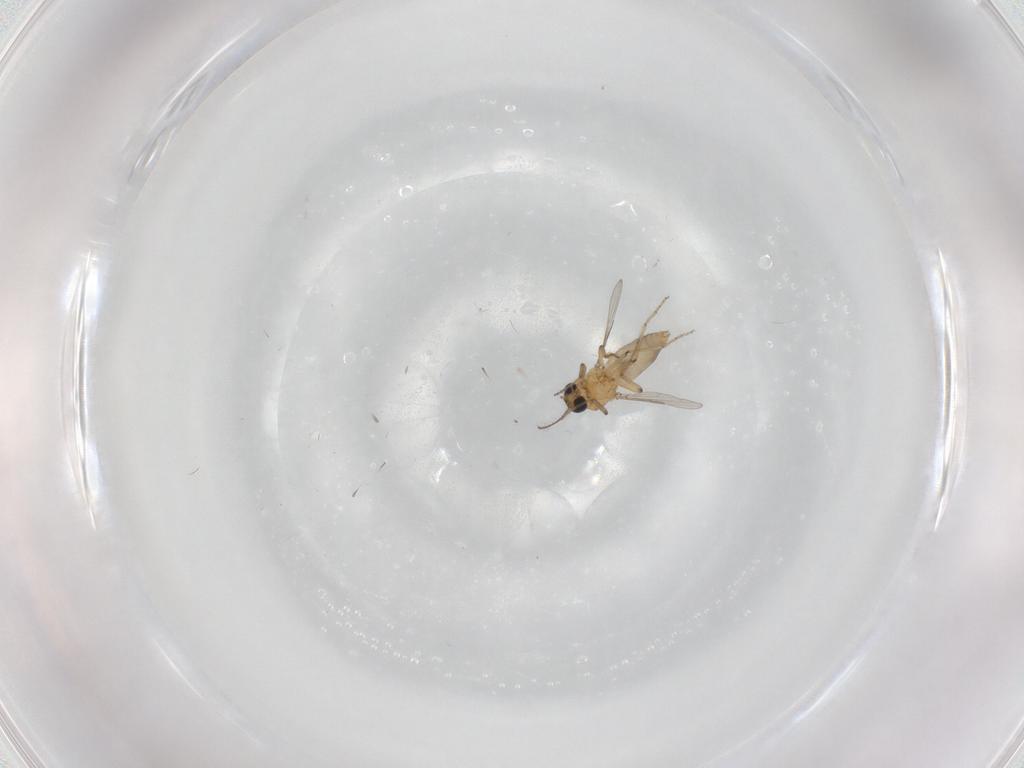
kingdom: Animalia
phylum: Arthropoda
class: Insecta
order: Diptera
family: Ceratopogonidae
